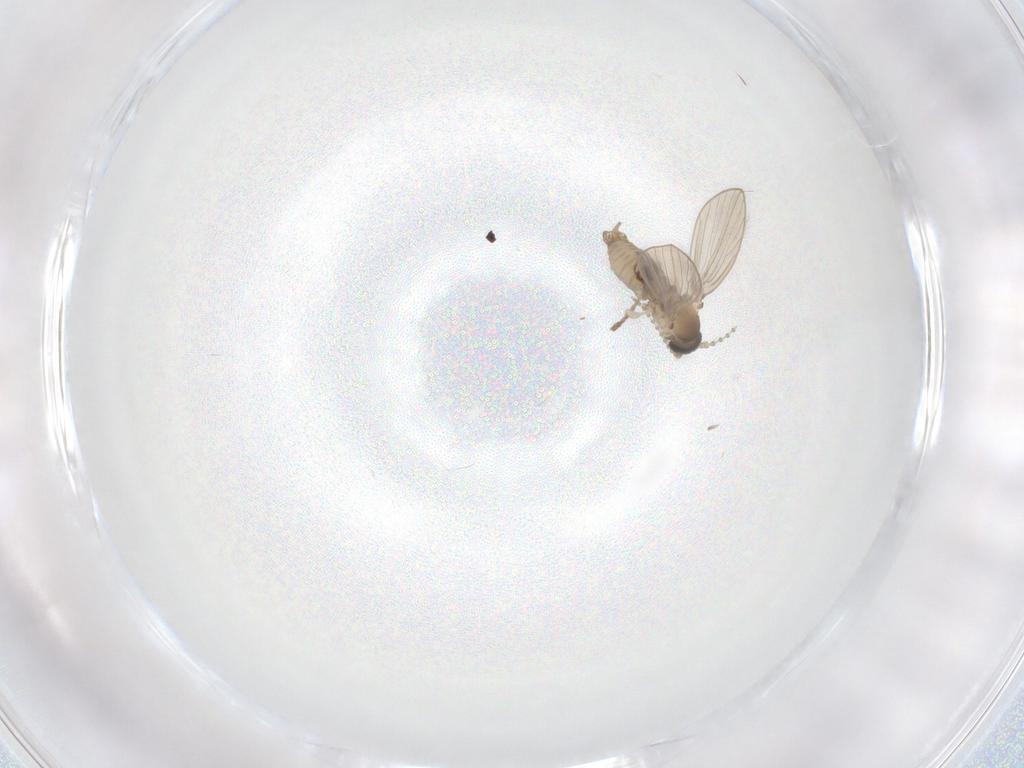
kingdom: Animalia
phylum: Arthropoda
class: Insecta
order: Diptera
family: Psychodidae
